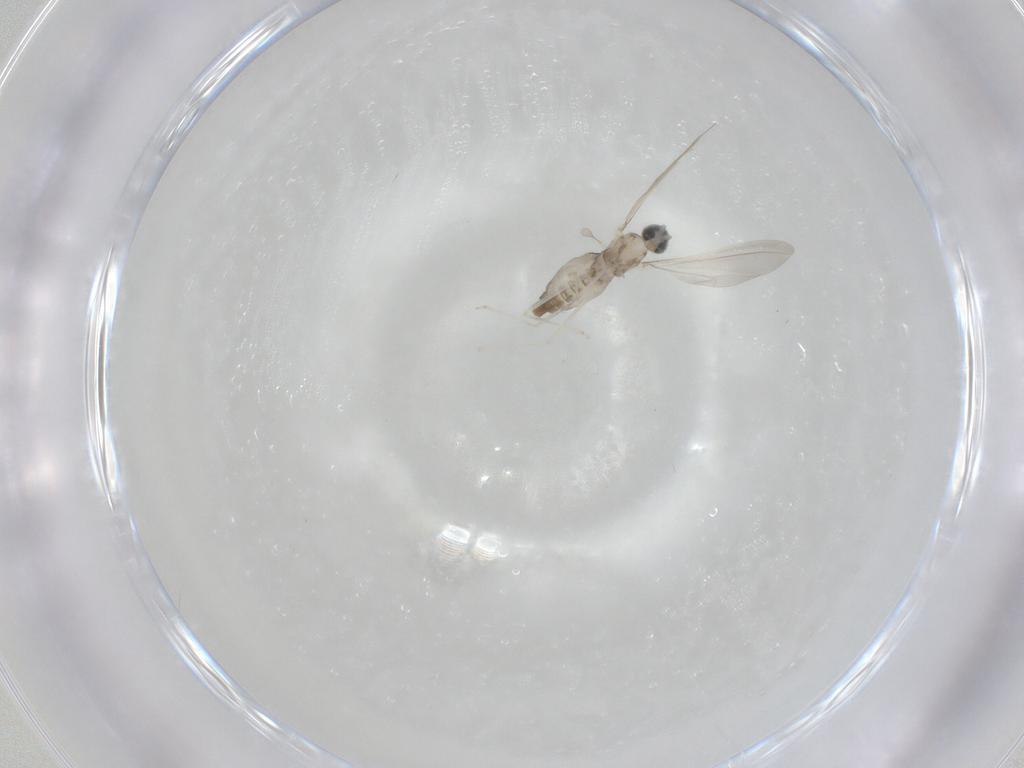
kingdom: Animalia
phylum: Arthropoda
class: Insecta
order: Diptera
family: Cecidomyiidae
